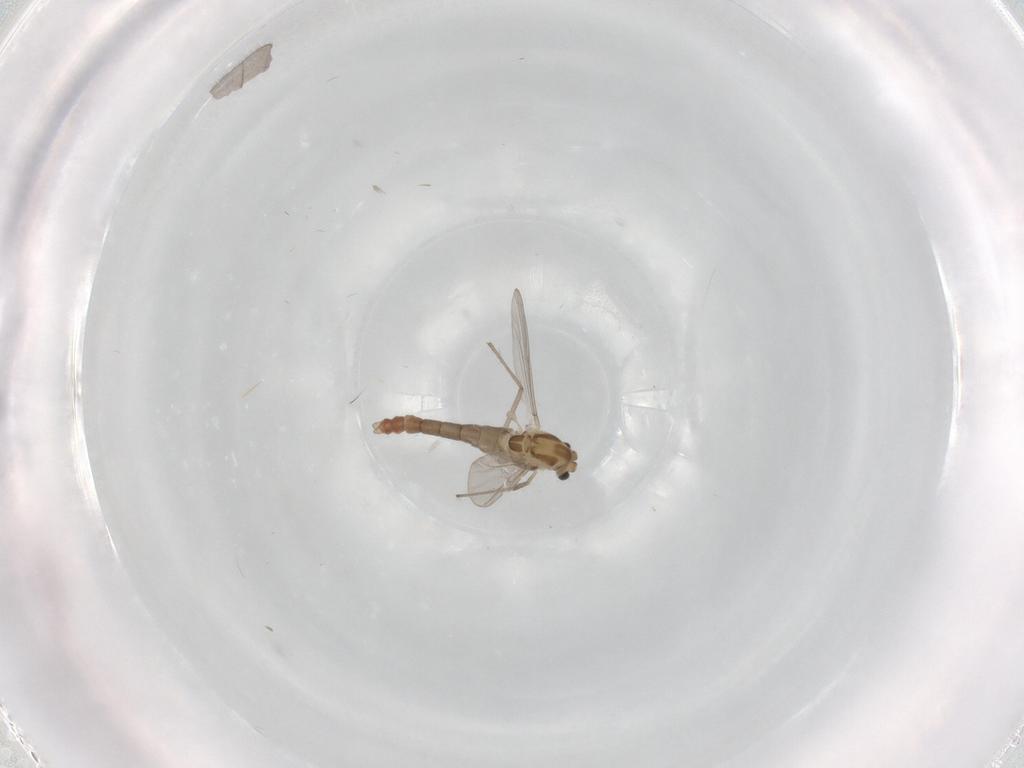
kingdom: Animalia
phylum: Arthropoda
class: Insecta
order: Diptera
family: Chironomidae
